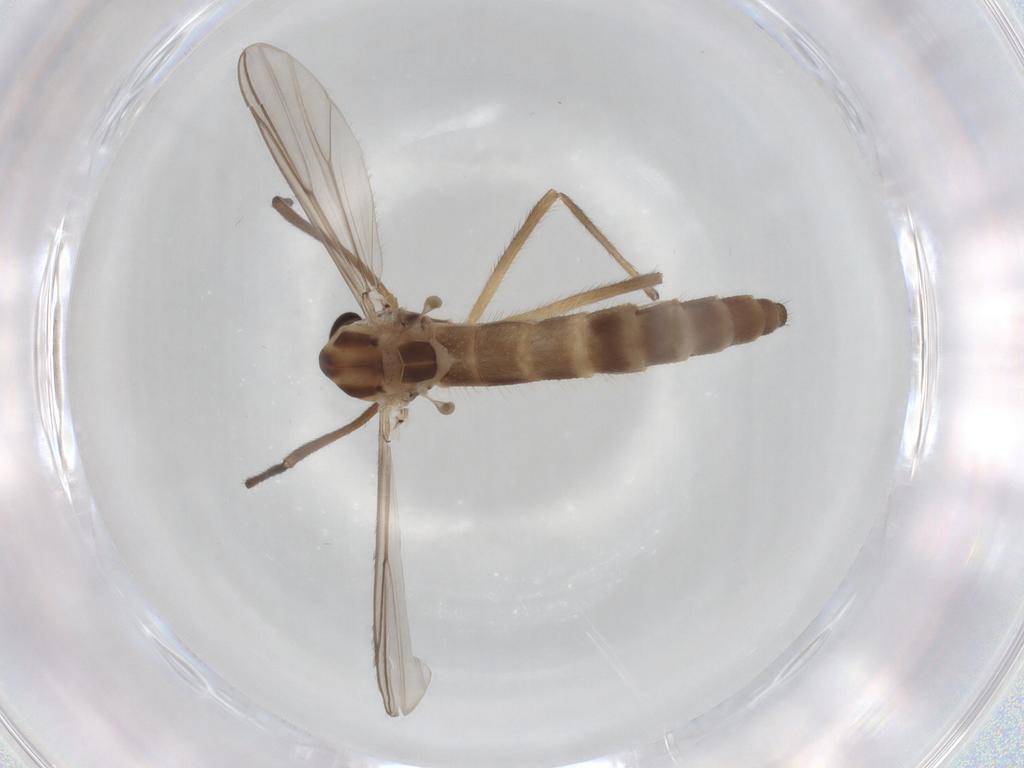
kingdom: Animalia
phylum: Arthropoda
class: Insecta
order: Diptera
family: Chironomidae
